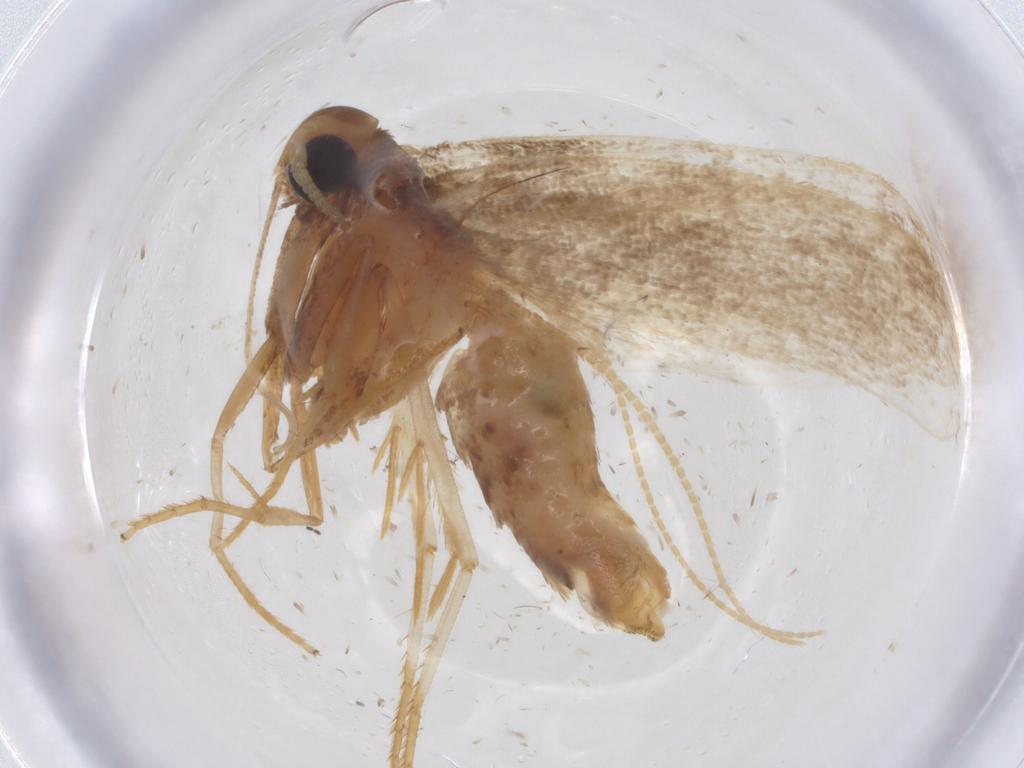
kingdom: Animalia
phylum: Arthropoda
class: Insecta
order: Lepidoptera
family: Lecithoceridae
